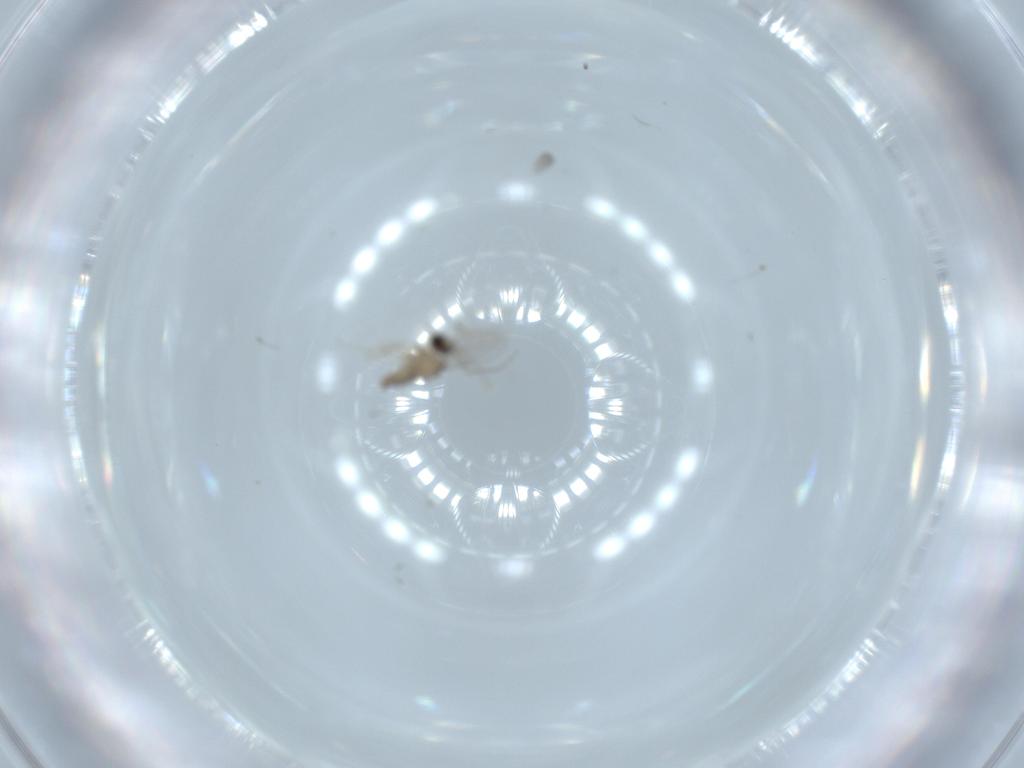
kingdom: Animalia
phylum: Arthropoda
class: Insecta
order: Diptera
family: Cecidomyiidae
